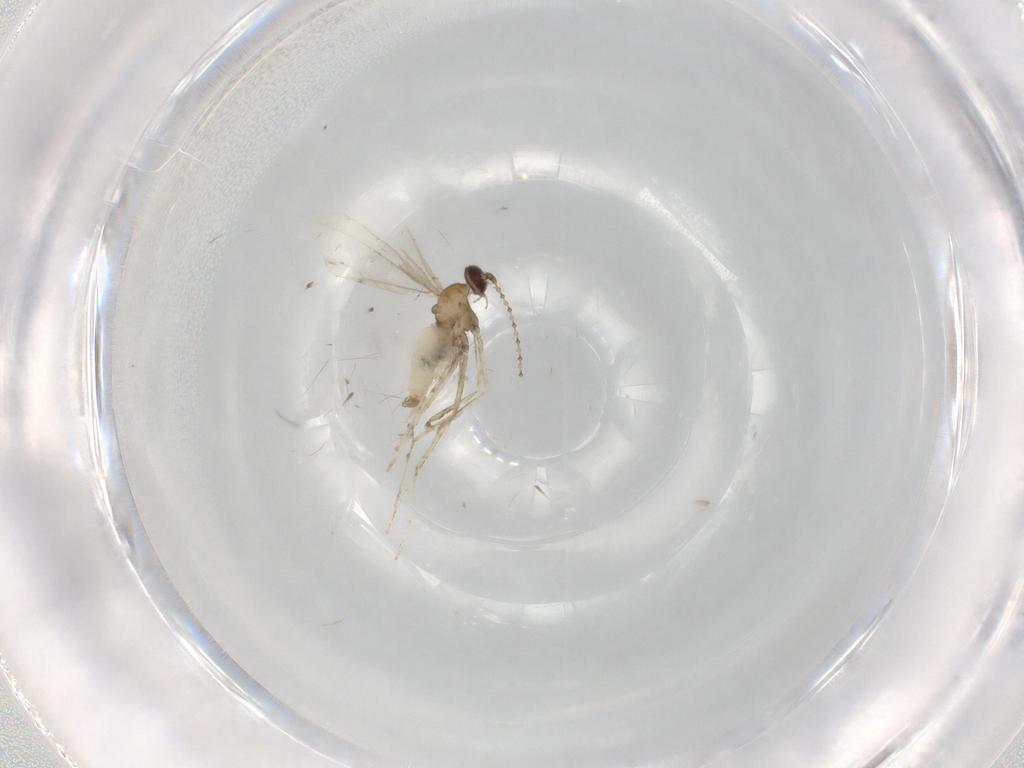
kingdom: Animalia
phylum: Arthropoda
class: Insecta
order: Diptera
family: Cecidomyiidae
